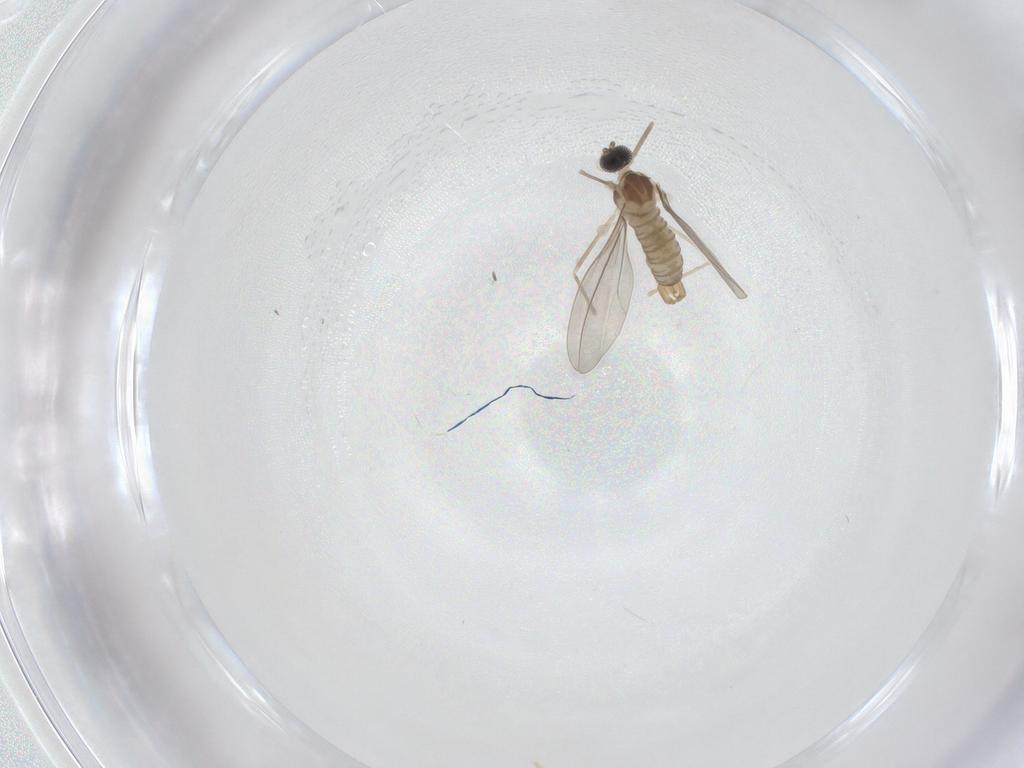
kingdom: Animalia
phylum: Arthropoda
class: Insecta
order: Diptera
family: Cecidomyiidae
